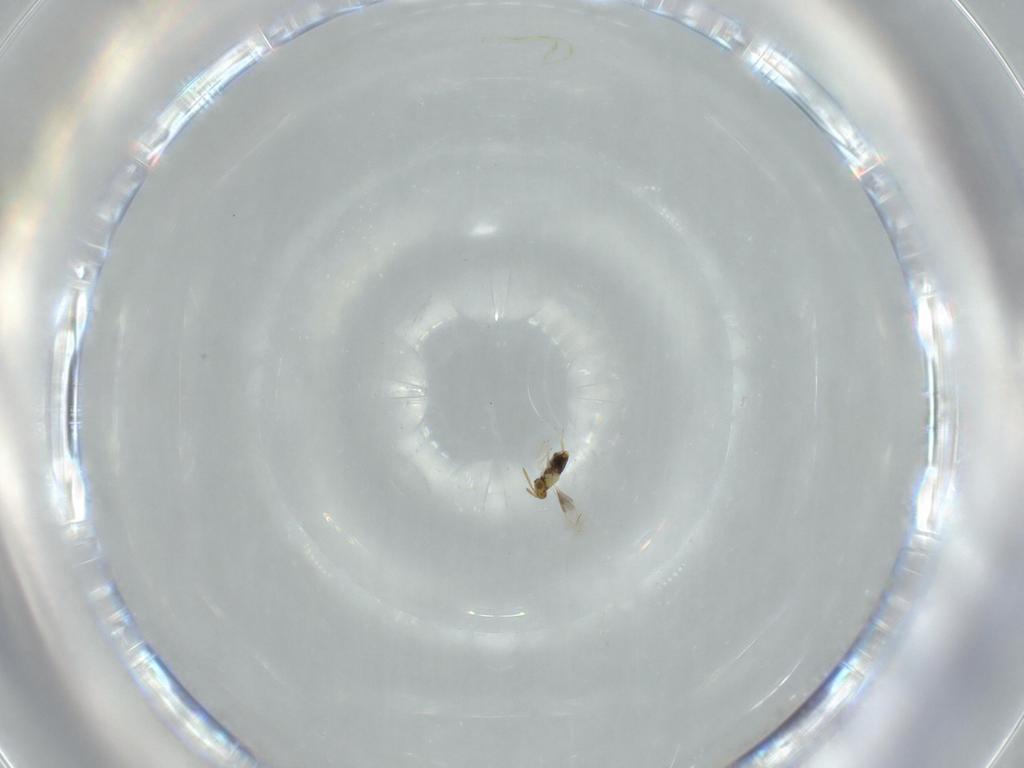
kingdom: Animalia
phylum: Arthropoda
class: Insecta
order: Hymenoptera
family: Aphelinidae
